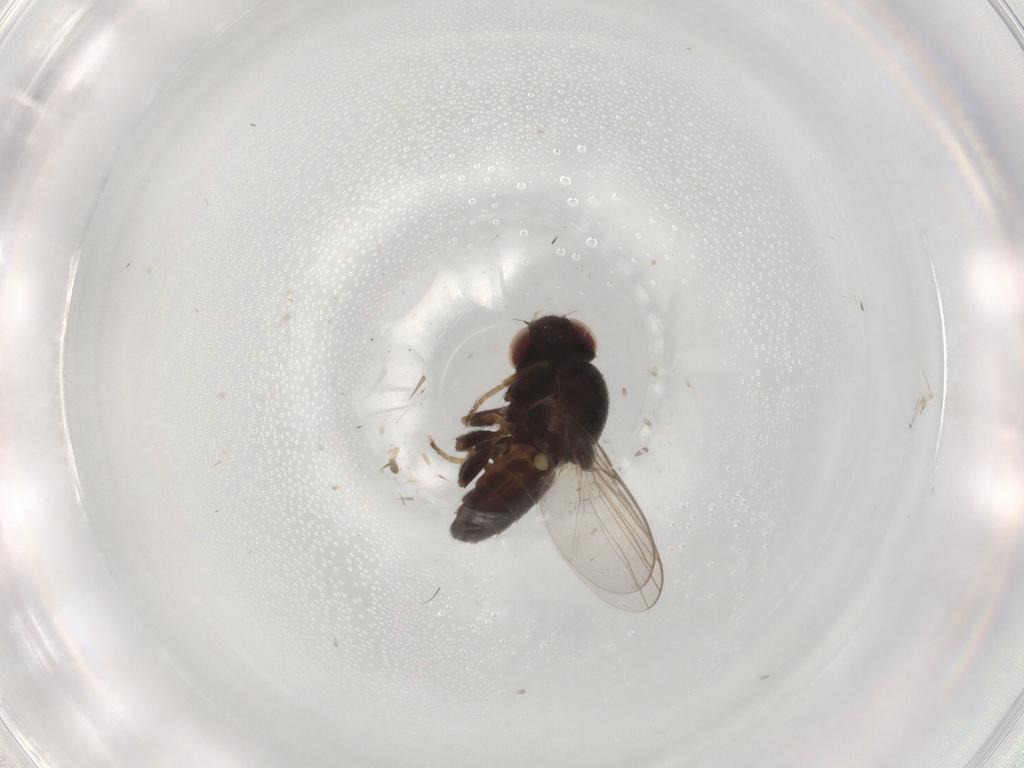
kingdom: Animalia
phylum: Arthropoda
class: Insecta
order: Diptera
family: Chloropidae
